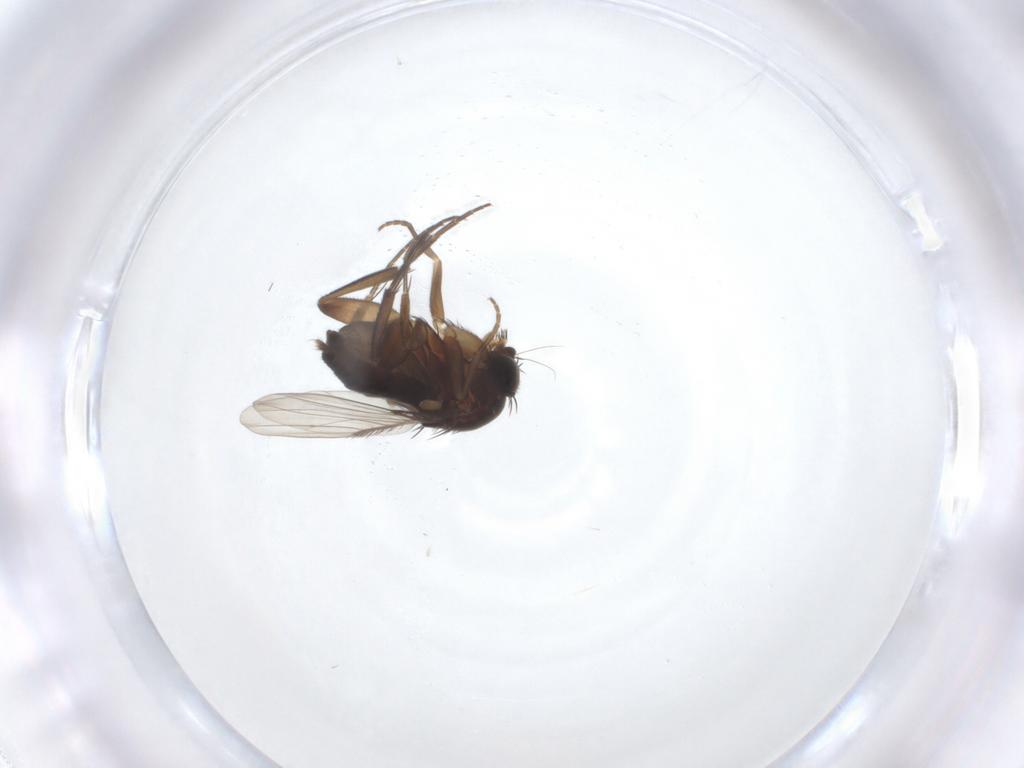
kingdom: Animalia
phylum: Arthropoda
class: Insecta
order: Diptera
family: Phoridae
